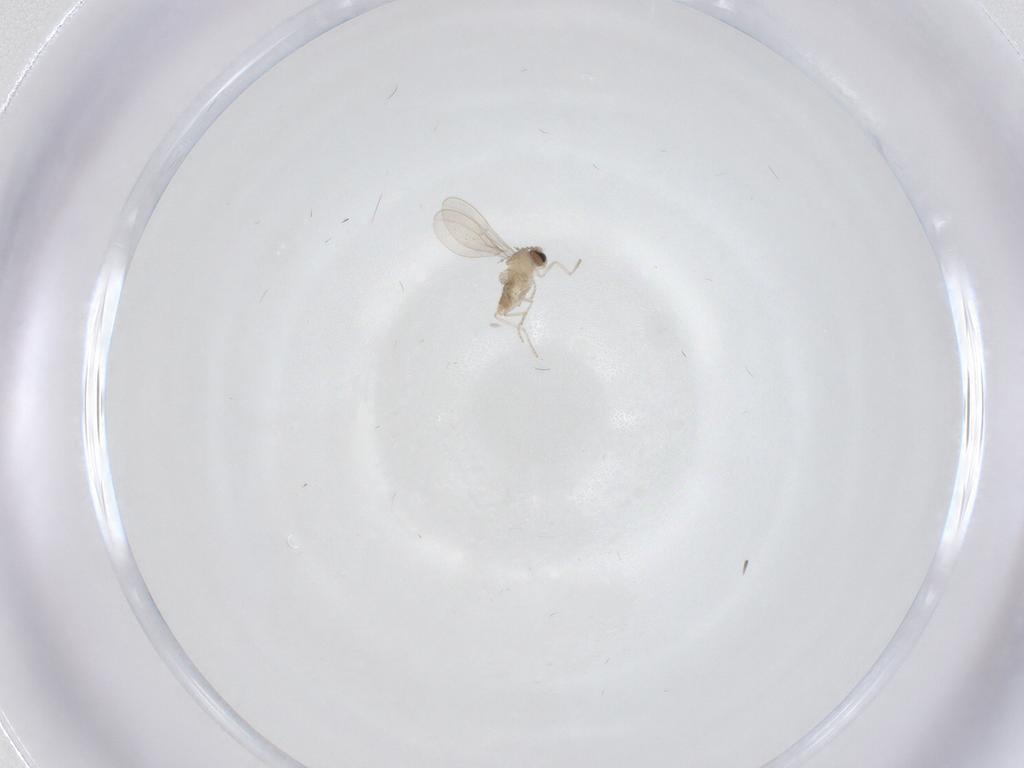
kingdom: Animalia
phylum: Arthropoda
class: Insecta
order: Diptera
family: Cecidomyiidae
